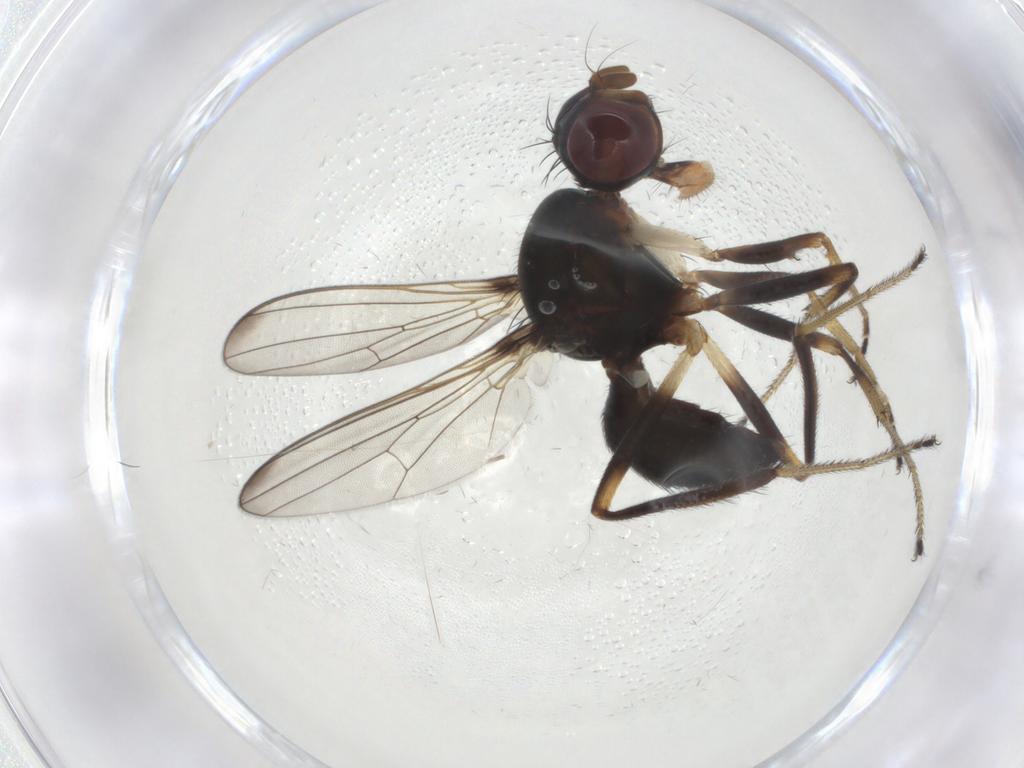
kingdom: Animalia
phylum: Arthropoda
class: Insecta
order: Diptera
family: Sepsidae
